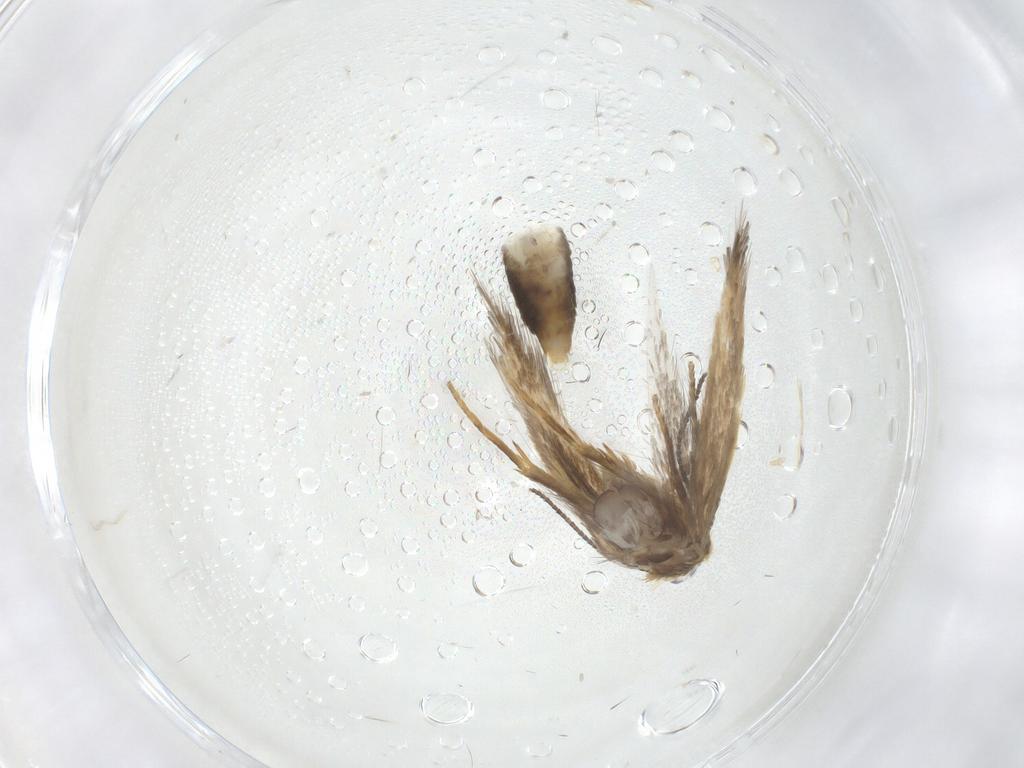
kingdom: Animalia
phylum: Arthropoda
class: Insecta
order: Lepidoptera
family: Nepticulidae
